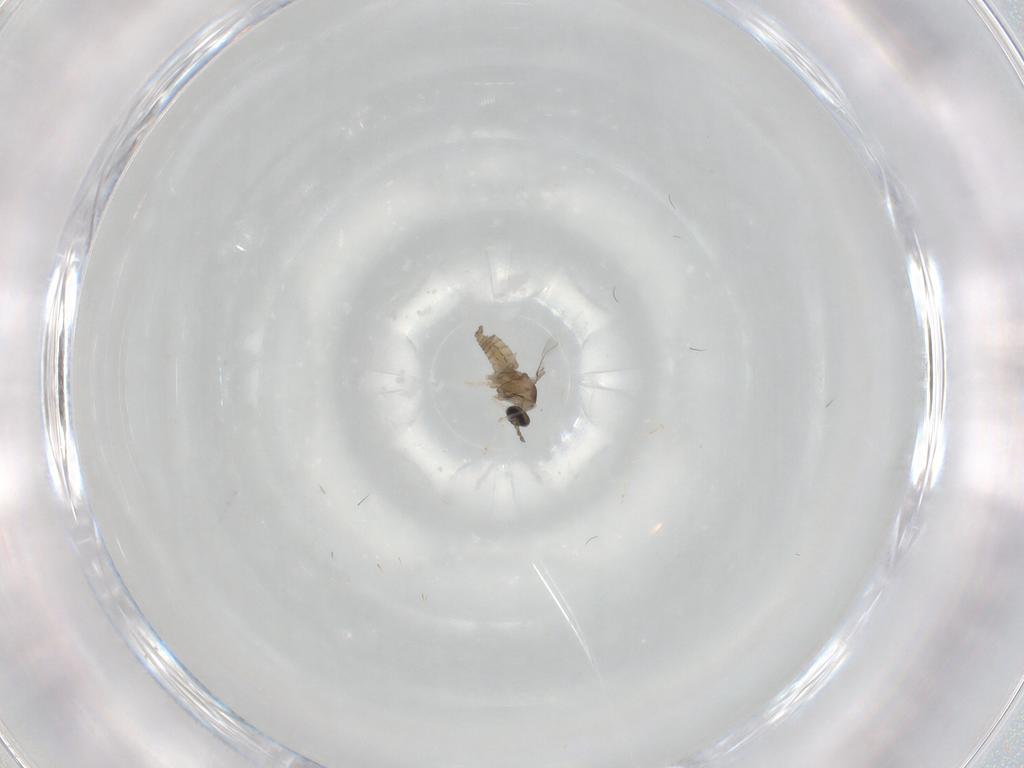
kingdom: Animalia
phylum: Arthropoda
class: Insecta
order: Diptera
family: Cecidomyiidae
